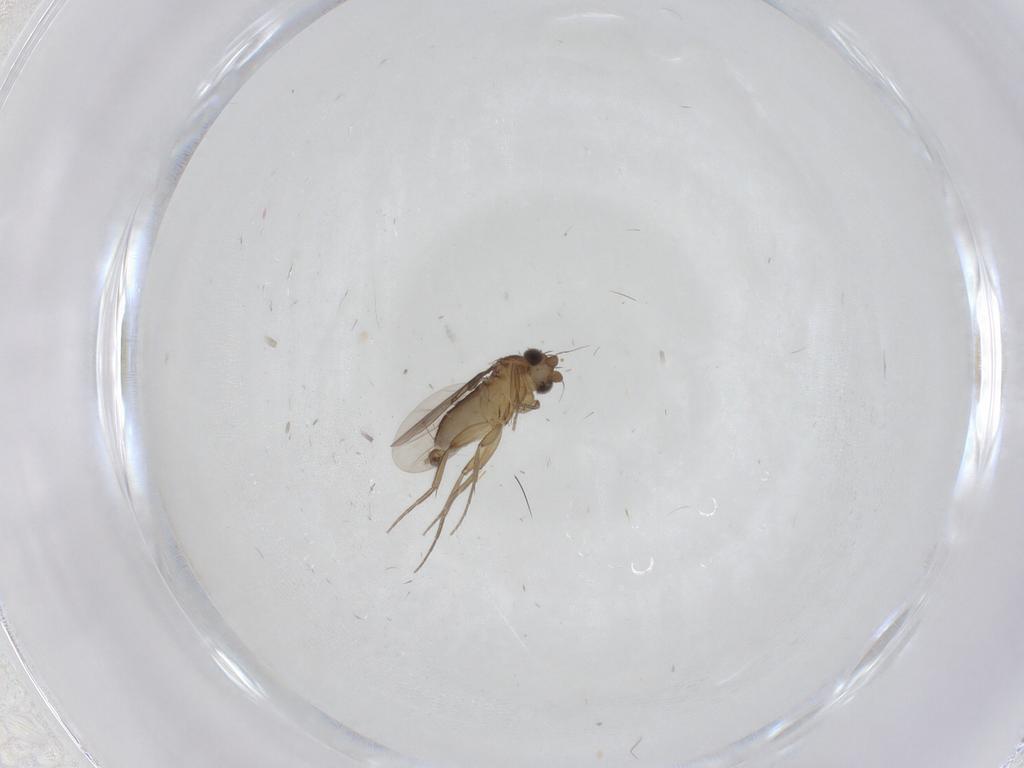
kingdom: Animalia
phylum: Arthropoda
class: Insecta
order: Diptera
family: Phoridae
